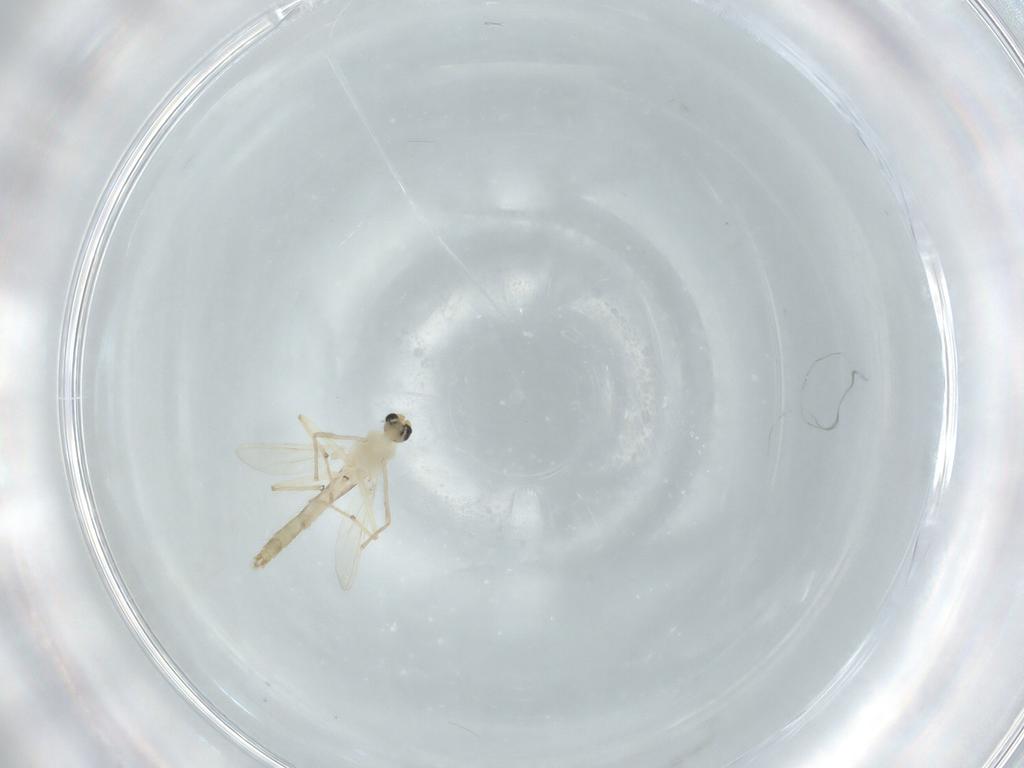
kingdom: Animalia
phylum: Arthropoda
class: Insecta
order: Diptera
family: Chironomidae
